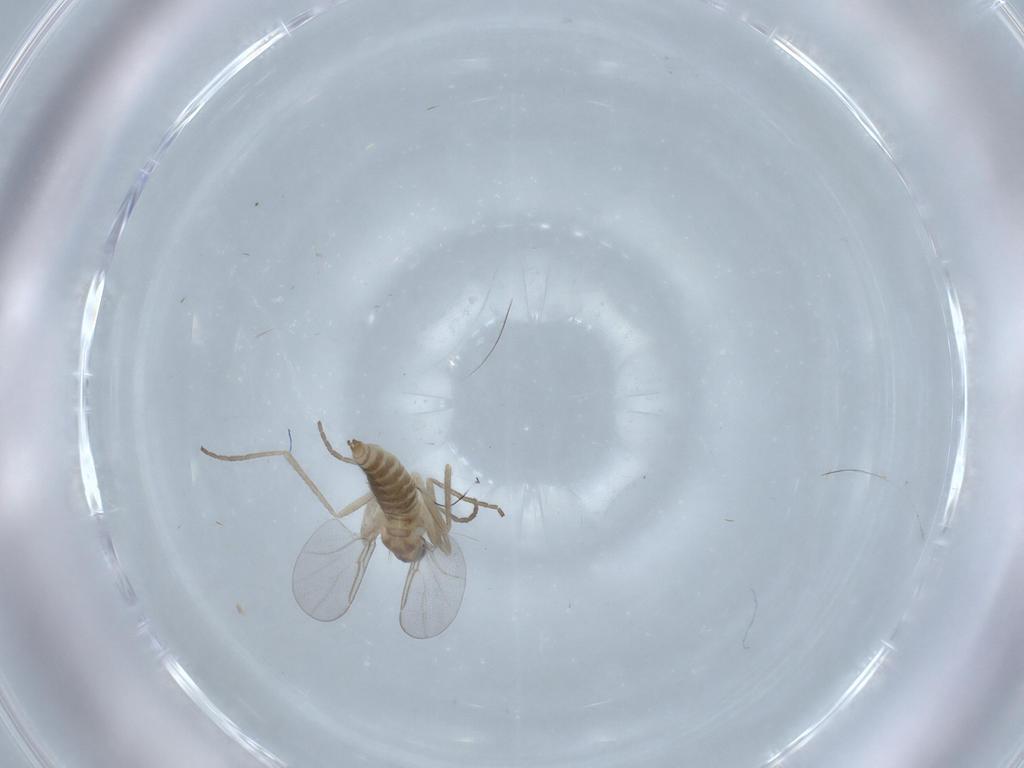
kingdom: Animalia
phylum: Arthropoda
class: Insecta
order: Diptera
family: Cecidomyiidae
